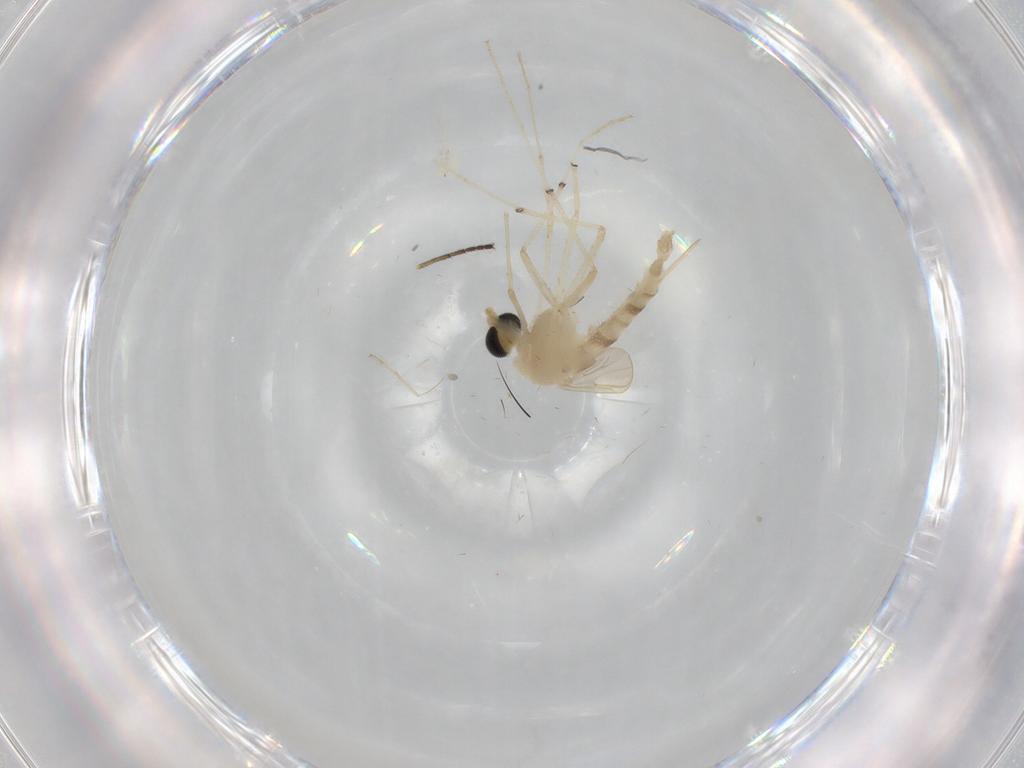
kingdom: Animalia
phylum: Arthropoda
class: Insecta
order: Diptera
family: Chironomidae
